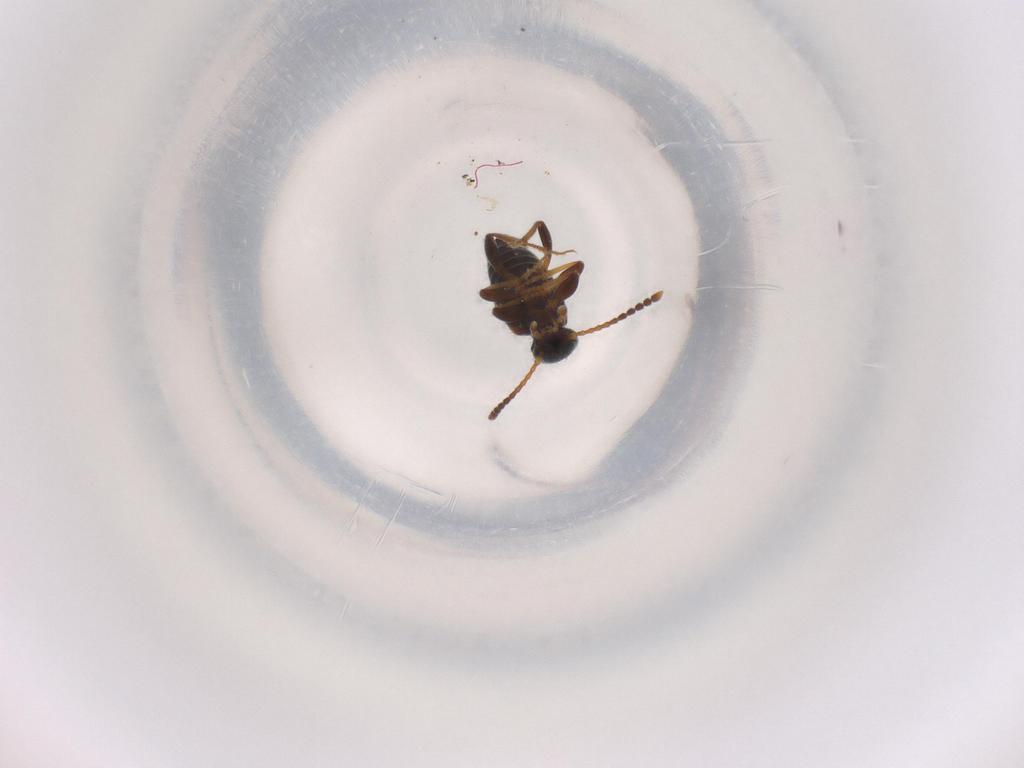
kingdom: Animalia
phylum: Arthropoda
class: Insecta
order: Coleoptera
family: Anthicidae
